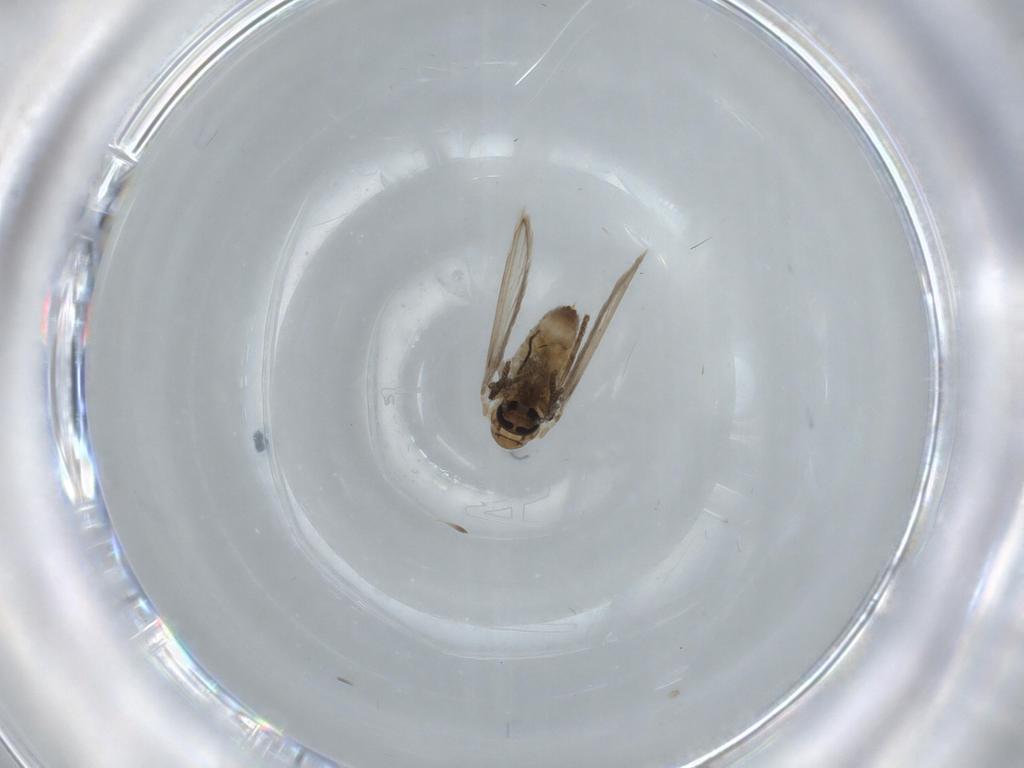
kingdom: Animalia
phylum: Arthropoda
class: Insecta
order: Diptera
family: Psychodidae
